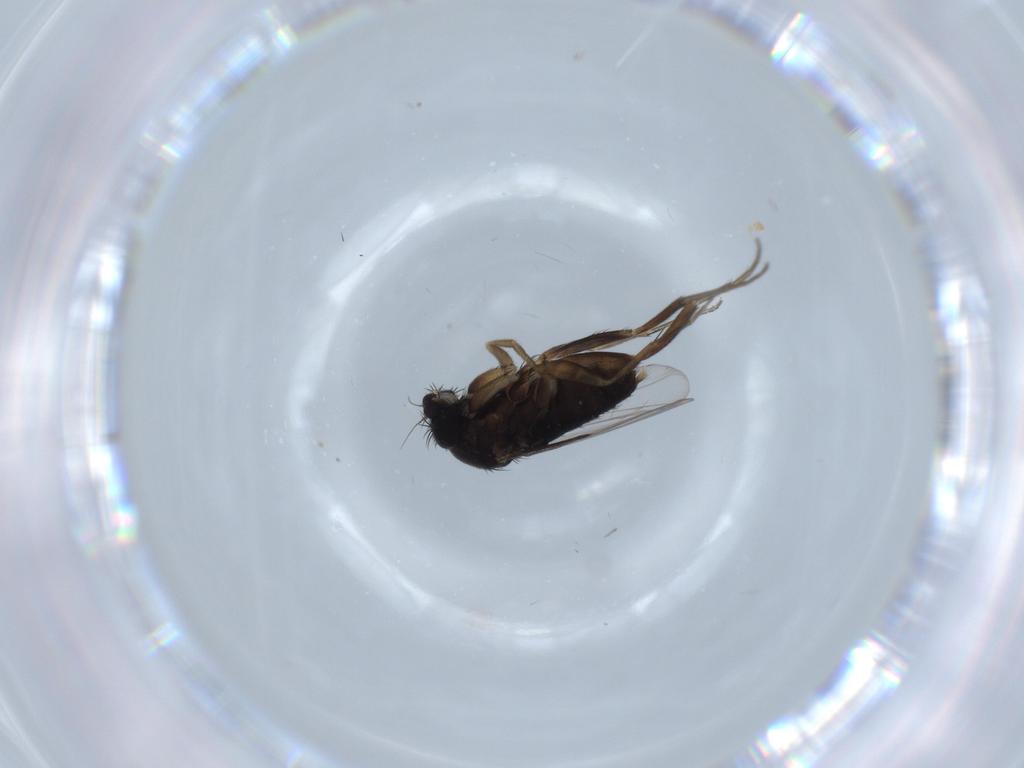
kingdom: Animalia
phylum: Arthropoda
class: Insecta
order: Diptera
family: Phoridae
